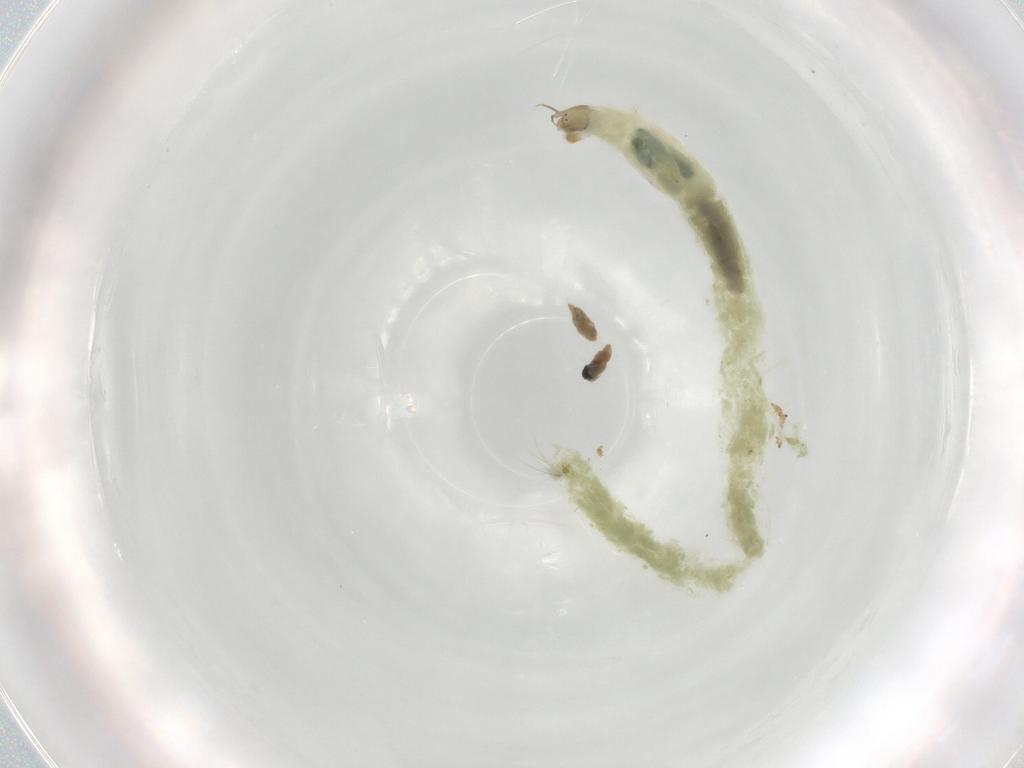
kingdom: Animalia
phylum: Arthropoda
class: Insecta
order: Diptera
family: Chironomidae
